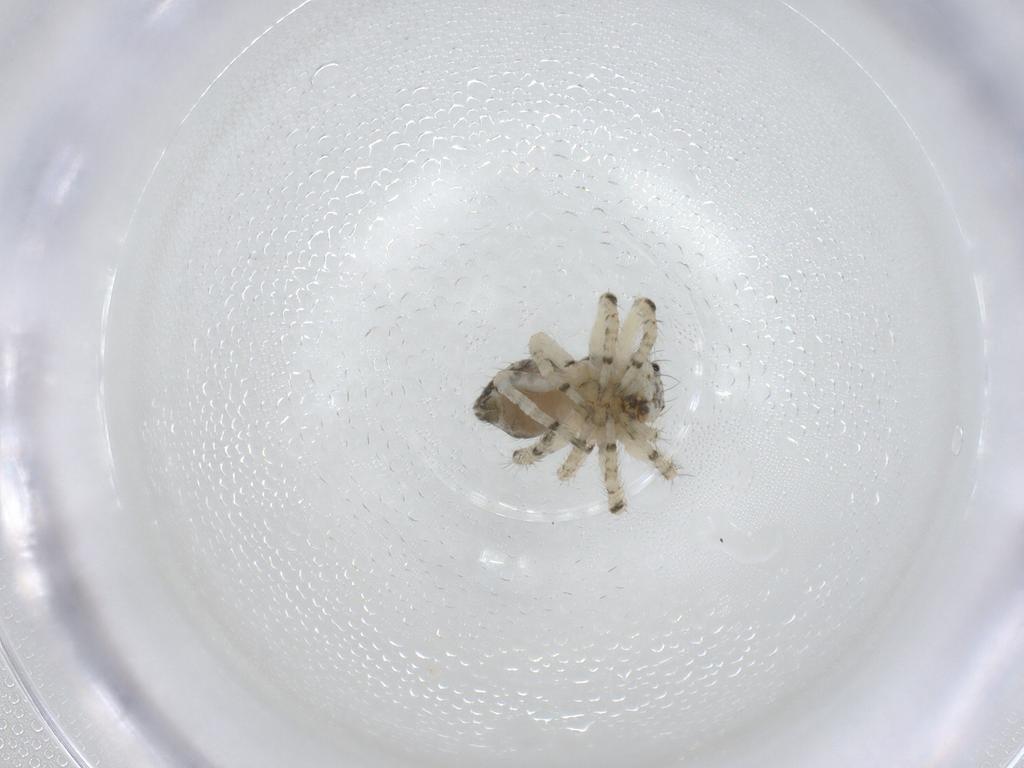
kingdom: Animalia
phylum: Arthropoda
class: Arachnida
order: Araneae
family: Thomisidae
